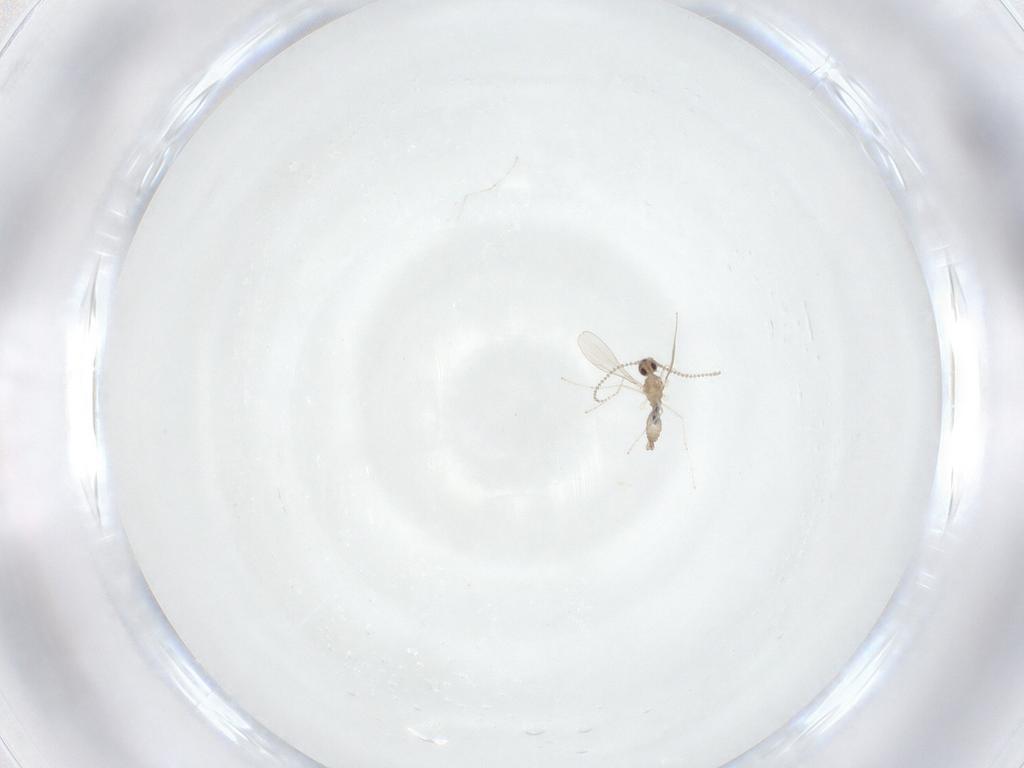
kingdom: Animalia
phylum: Arthropoda
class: Insecta
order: Diptera
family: Cecidomyiidae
